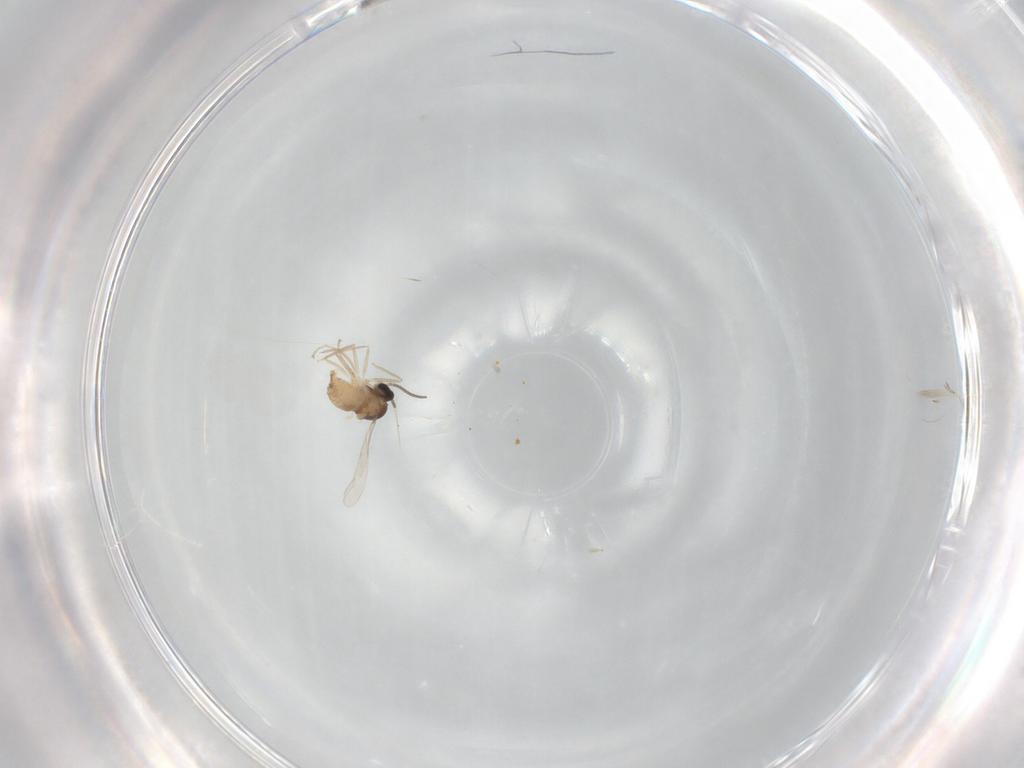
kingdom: Animalia
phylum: Arthropoda
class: Insecta
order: Diptera
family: Cecidomyiidae
